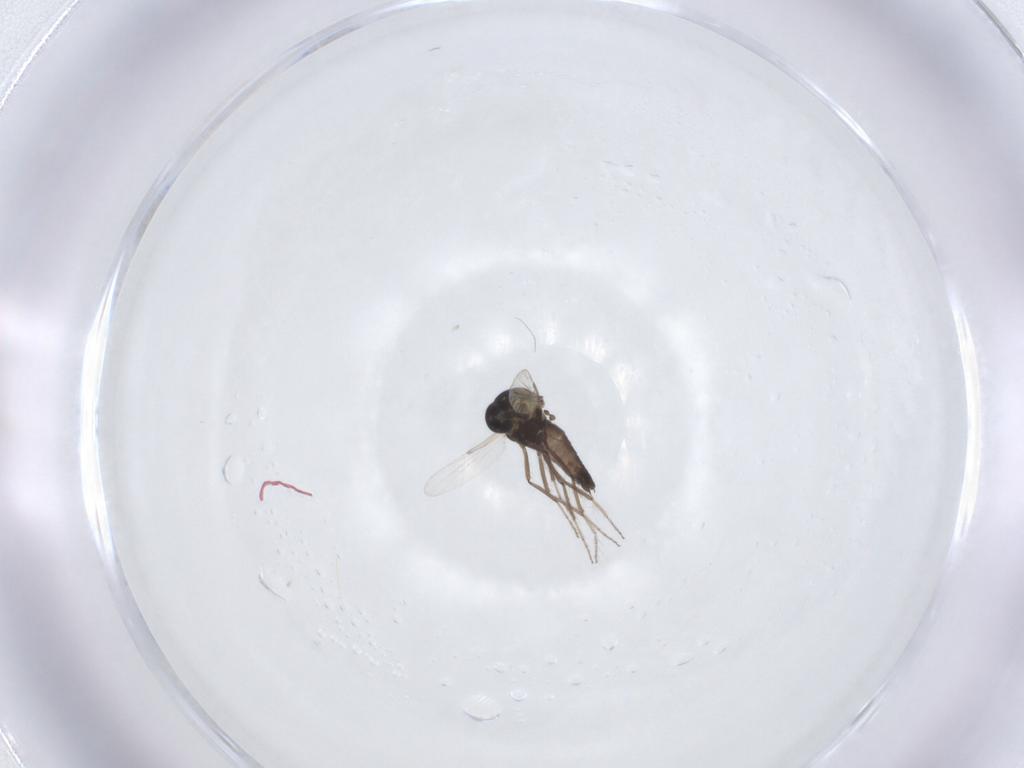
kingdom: Animalia
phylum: Arthropoda
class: Insecta
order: Diptera
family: Ceratopogonidae
